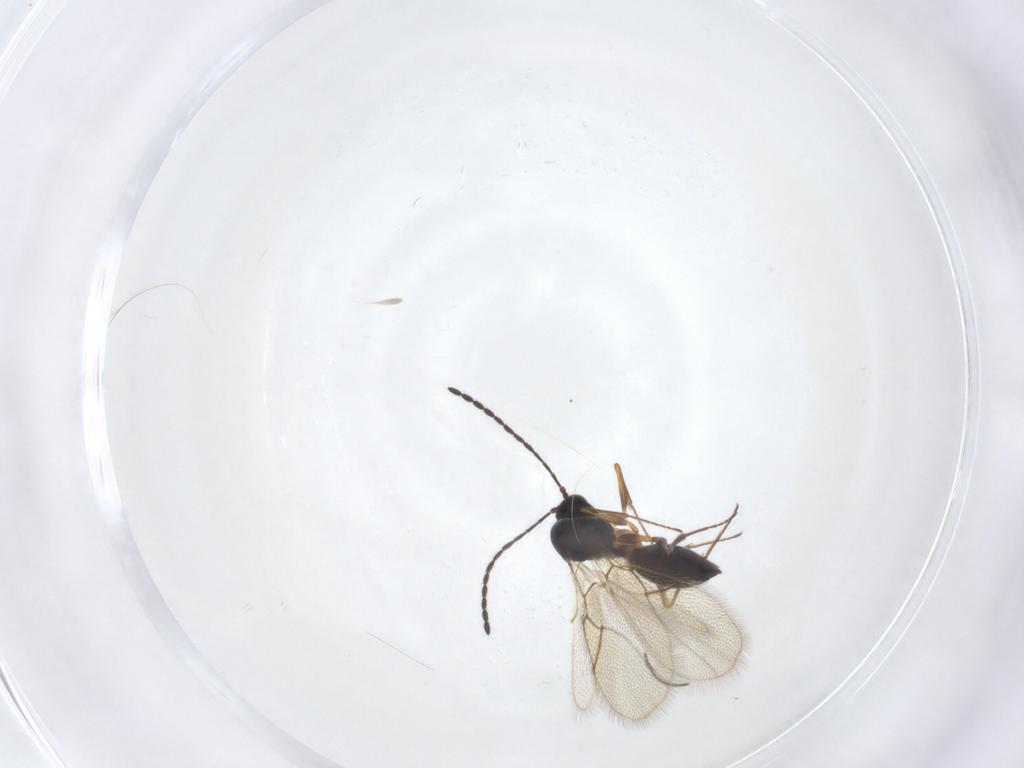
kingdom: Animalia
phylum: Arthropoda
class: Insecta
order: Hymenoptera
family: Figitidae
